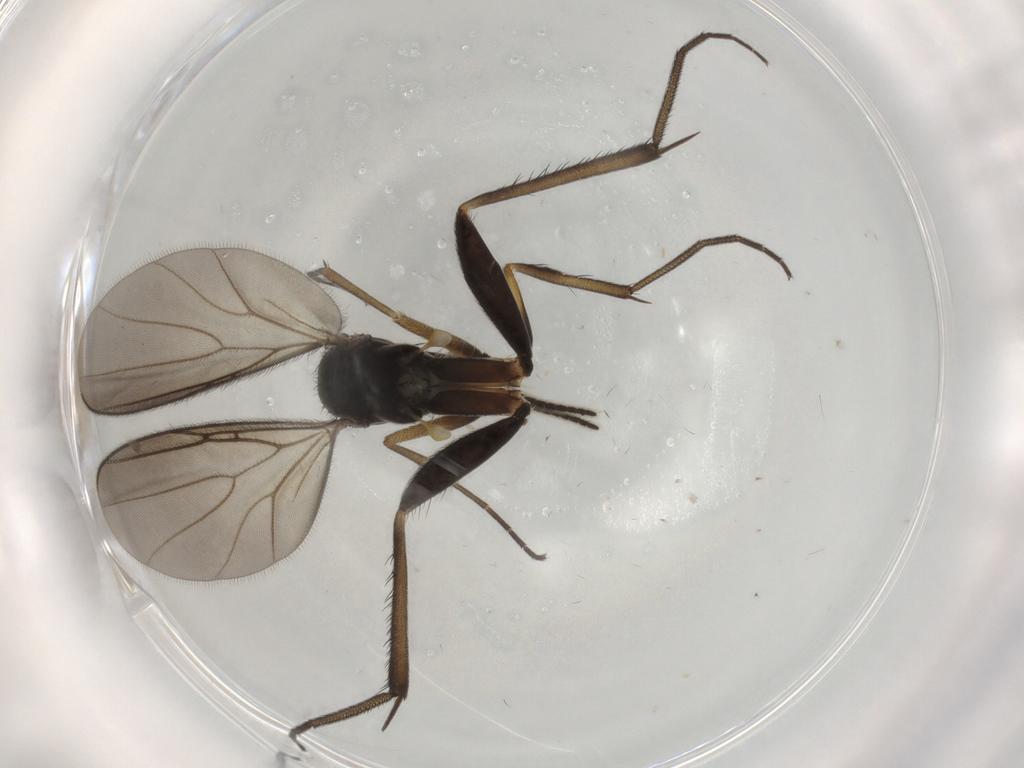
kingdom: Animalia
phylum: Arthropoda
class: Insecta
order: Diptera
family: Mycetophilidae
